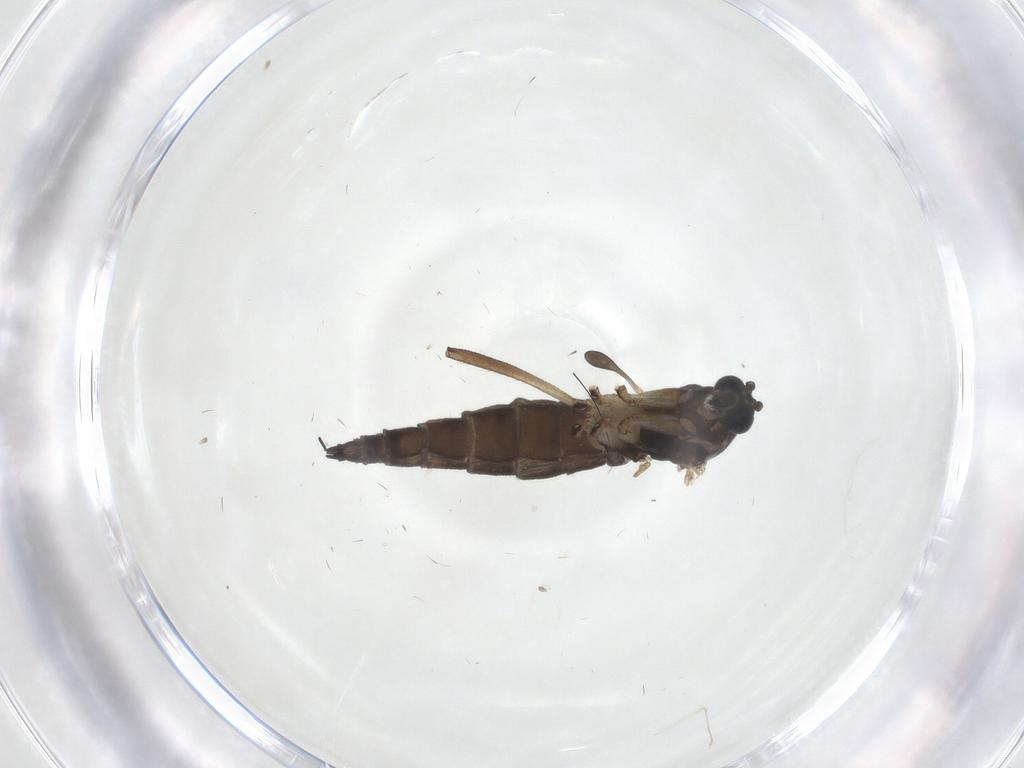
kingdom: Animalia
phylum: Arthropoda
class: Insecta
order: Diptera
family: Sciaridae
